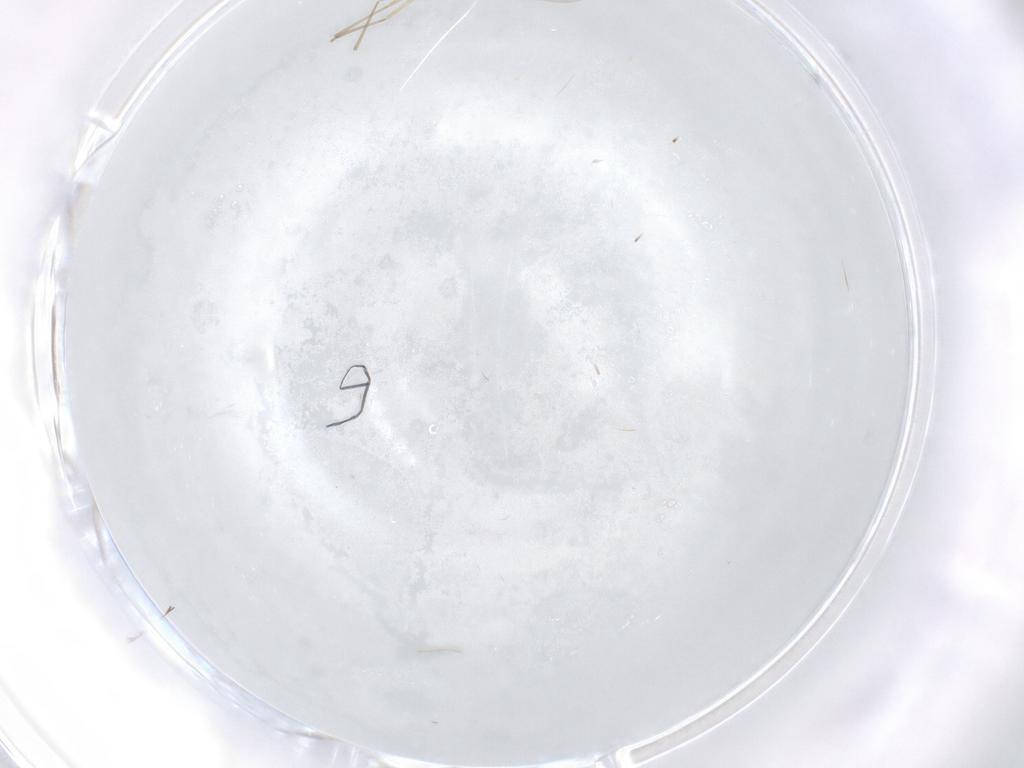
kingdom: Animalia
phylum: Arthropoda
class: Insecta
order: Diptera
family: Cecidomyiidae
